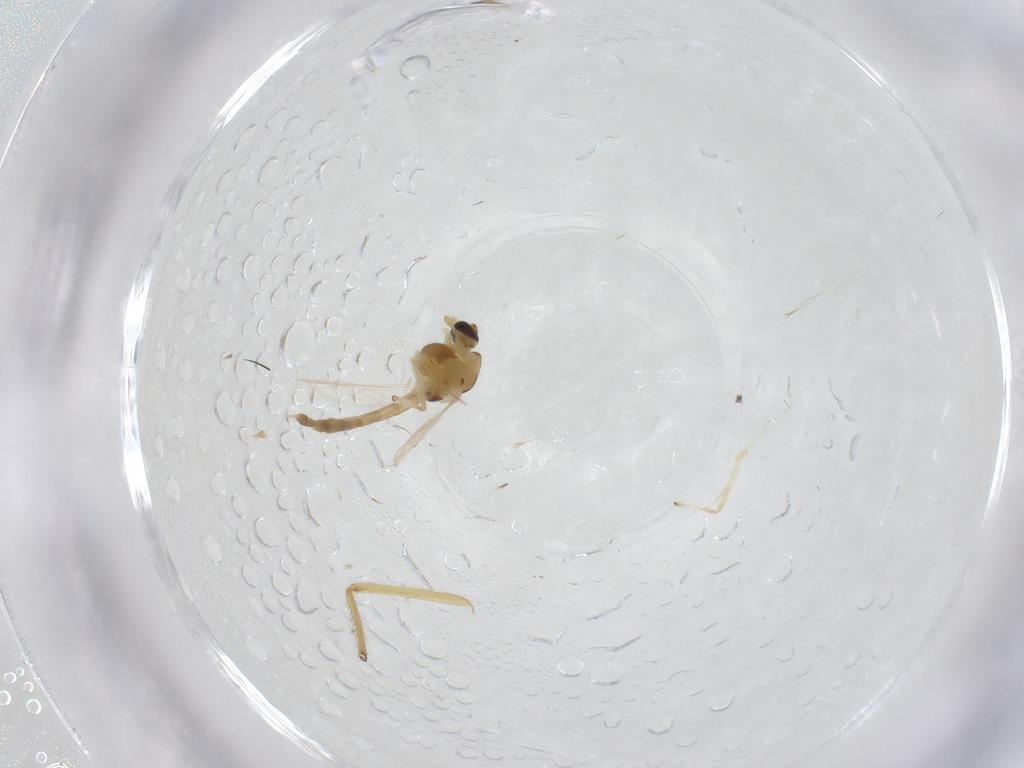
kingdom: Animalia
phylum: Arthropoda
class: Insecta
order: Diptera
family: Chironomidae
